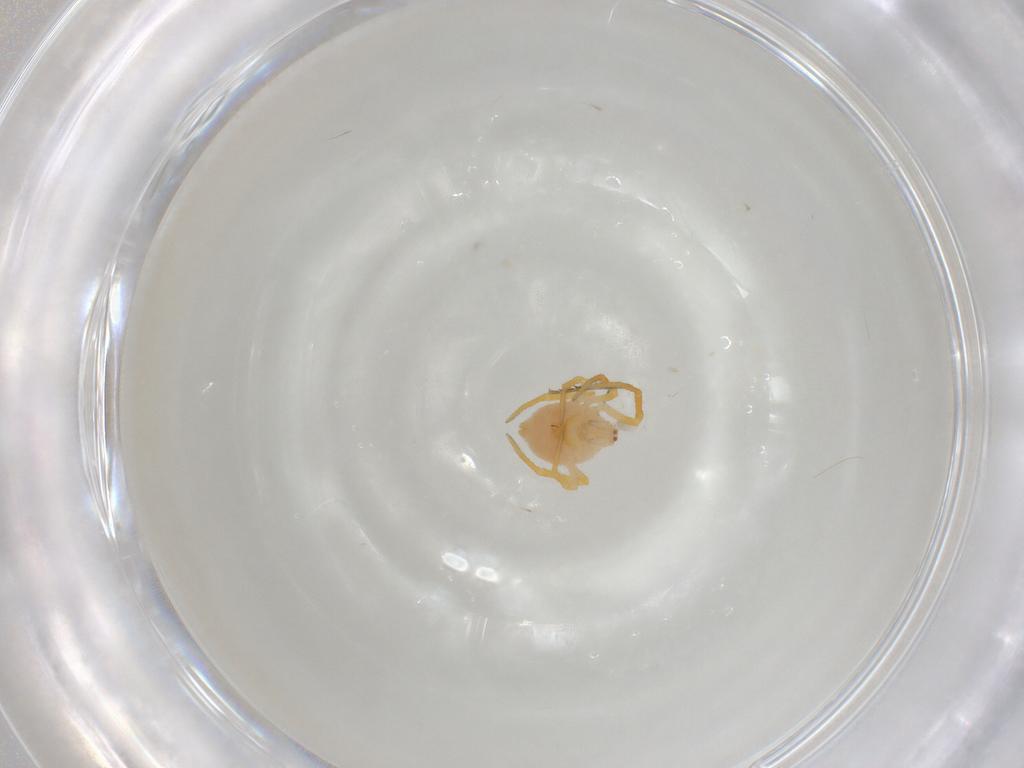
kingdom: Animalia
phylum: Arthropoda
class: Arachnida
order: Araneae
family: Theridiidae
